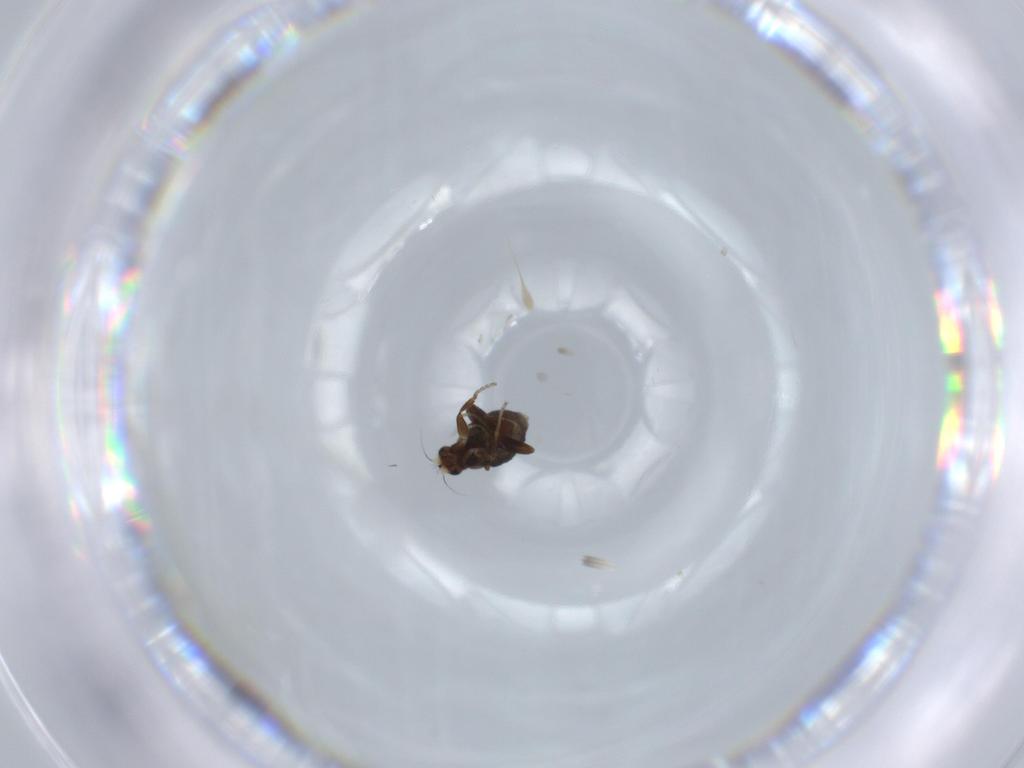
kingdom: Animalia
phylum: Arthropoda
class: Insecta
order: Diptera
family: Phoridae
